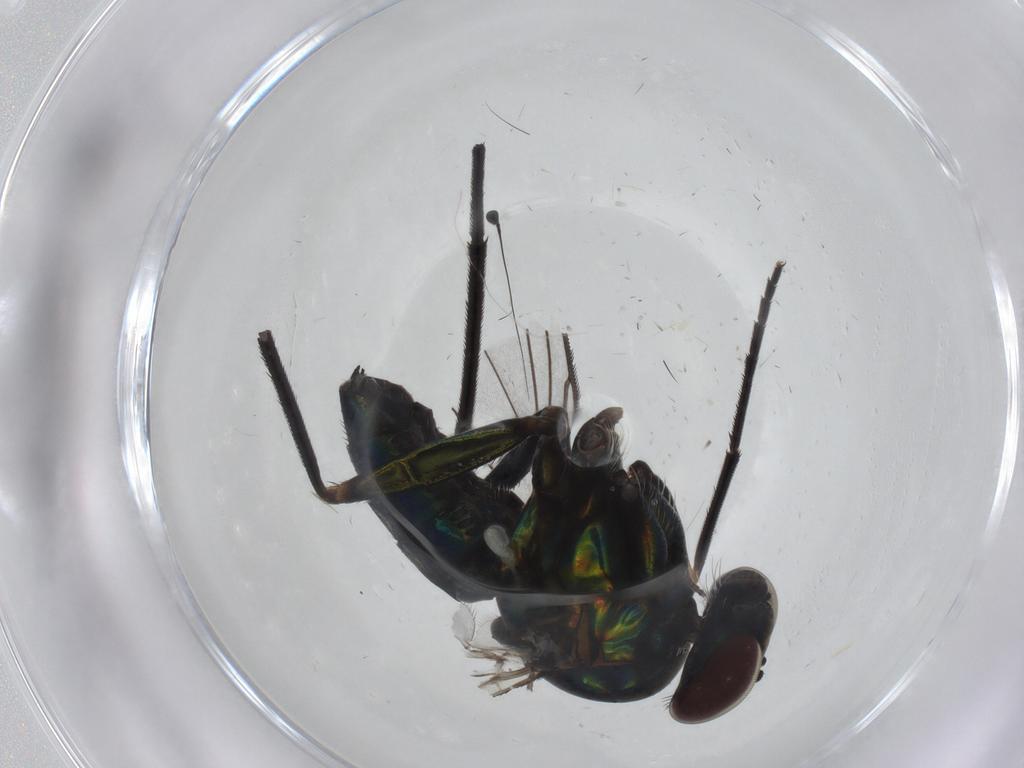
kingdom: Animalia
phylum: Arthropoda
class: Insecta
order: Diptera
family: Dolichopodidae
